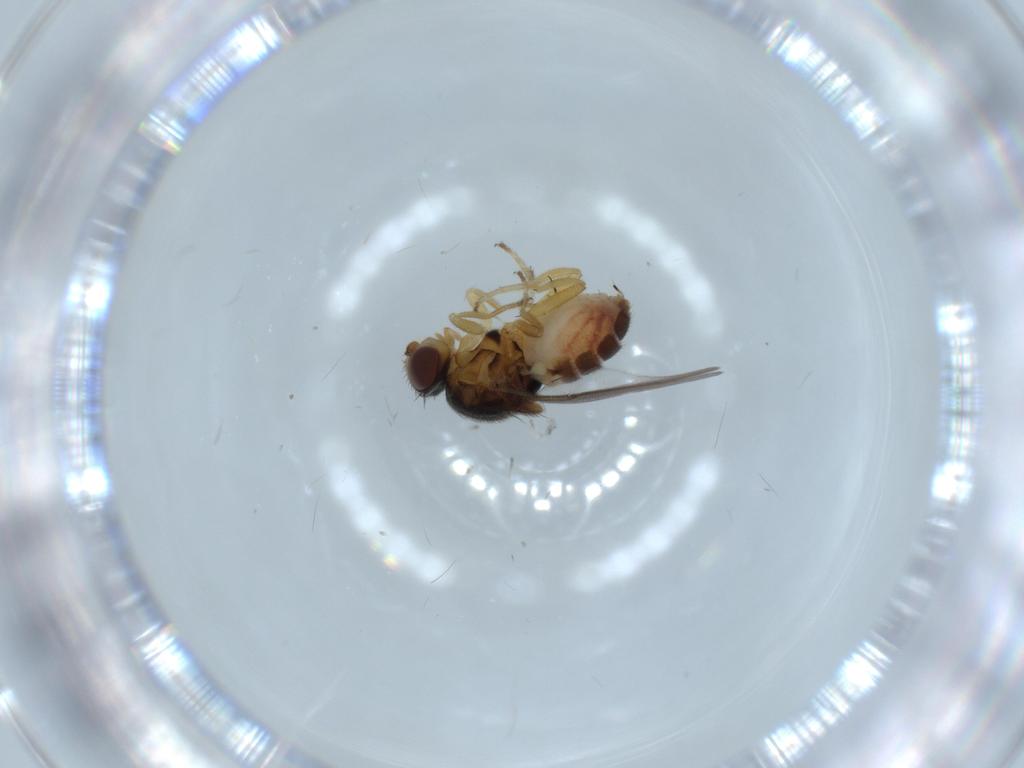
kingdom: Animalia
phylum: Arthropoda
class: Insecta
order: Diptera
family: Chloropidae
